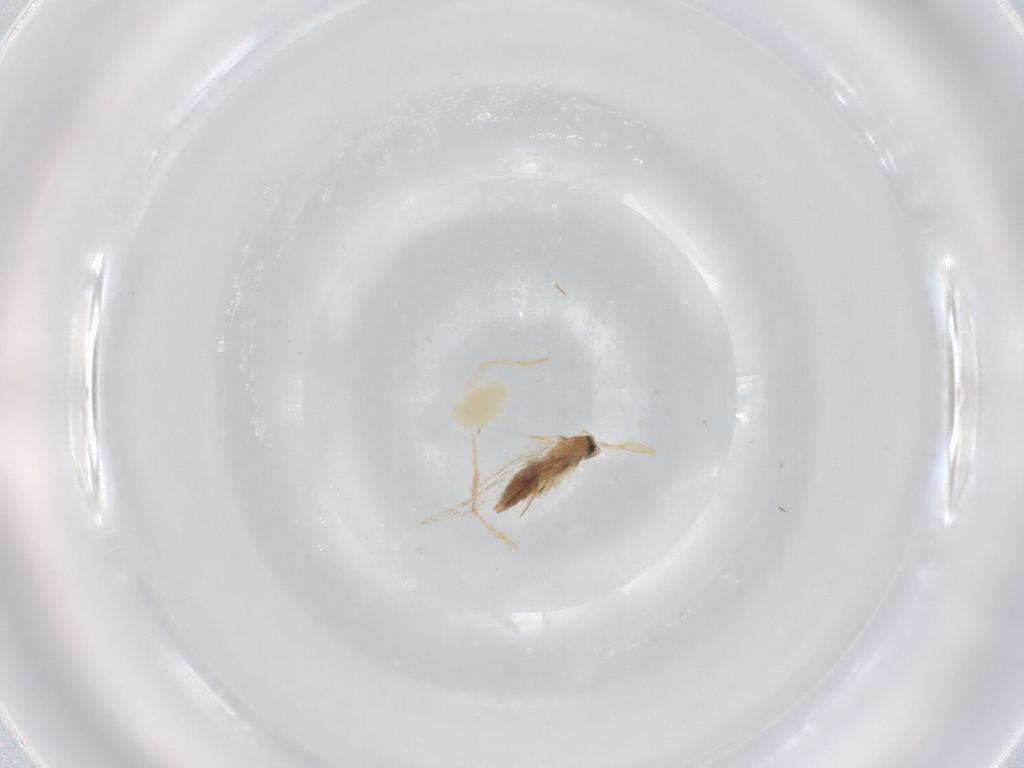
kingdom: Animalia
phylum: Arthropoda
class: Insecta
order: Lepidoptera
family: Nepticulidae
